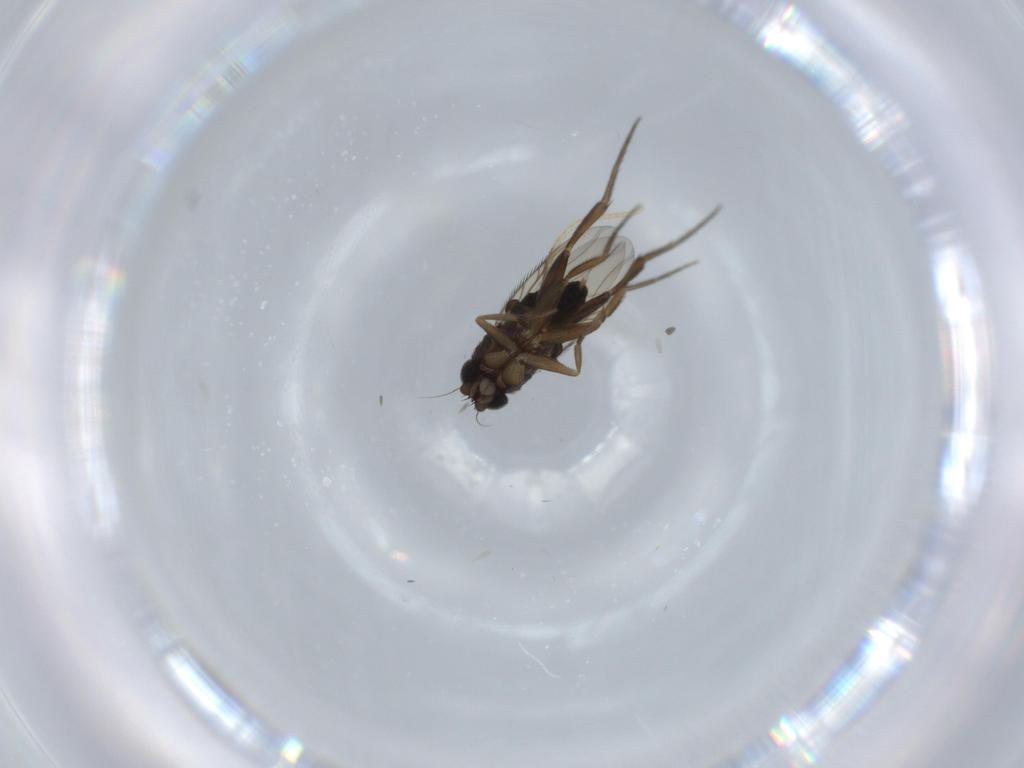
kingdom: Animalia
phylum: Arthropoda
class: Insecta
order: Diptera
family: Phoridae
